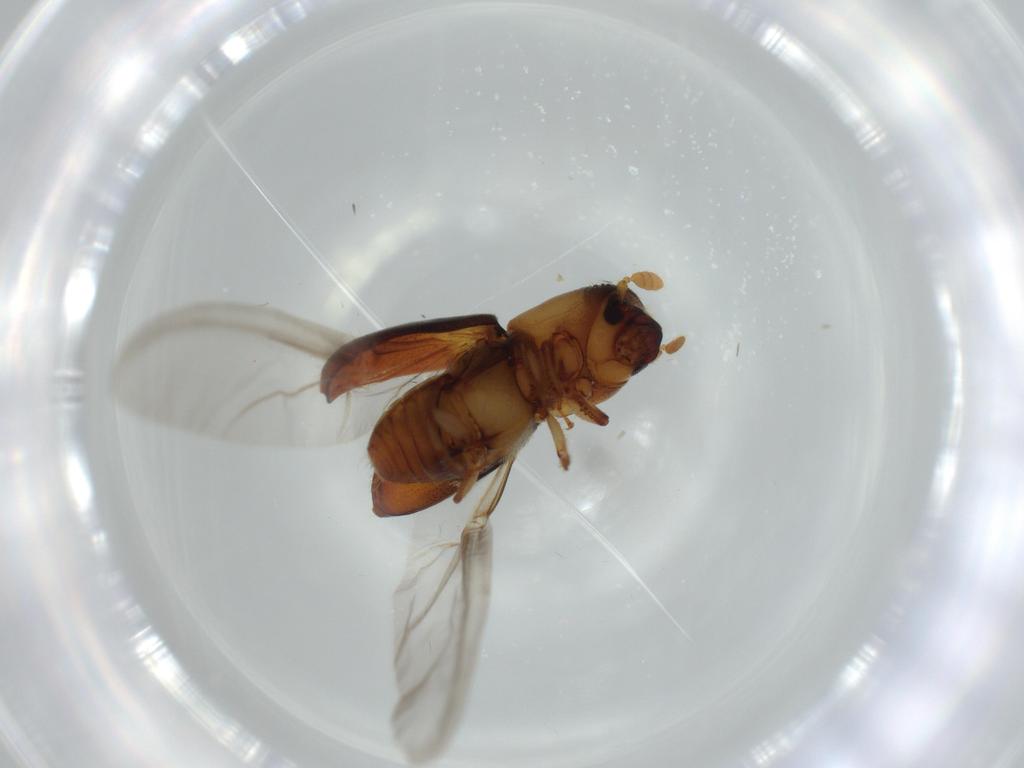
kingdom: Animalia
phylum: Arthropoda
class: Insecta
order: Coleoptera
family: Curculionidae
